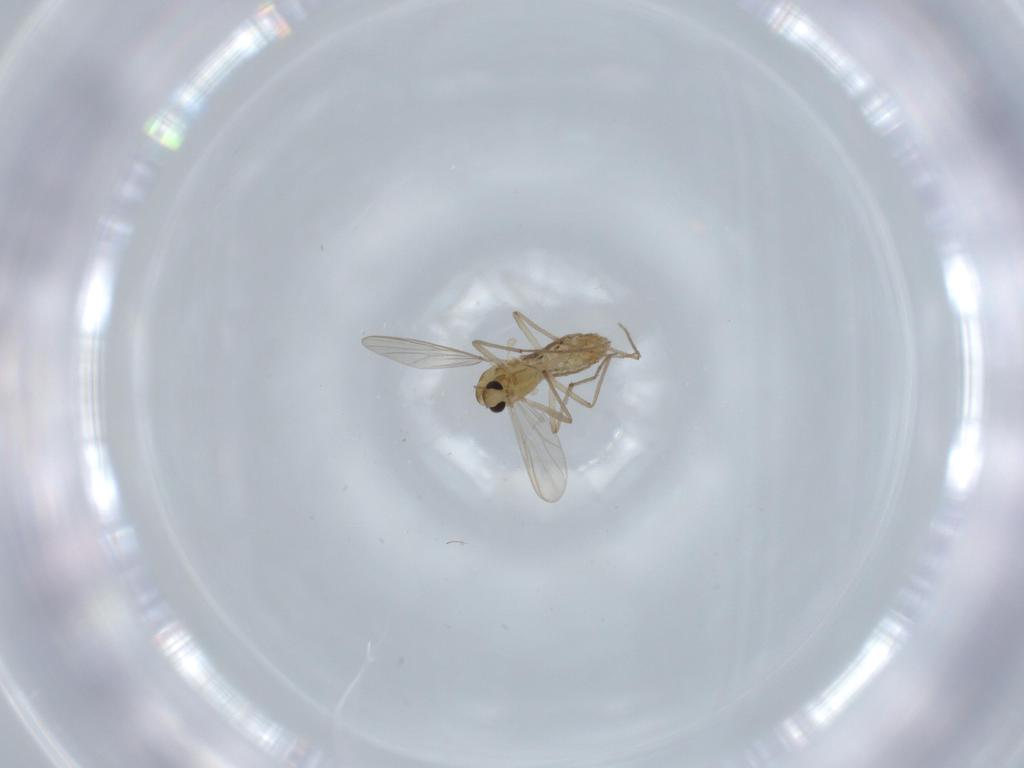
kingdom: Animalia
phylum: Arthropoda
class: Insecta
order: Diptera
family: Chironomidae
